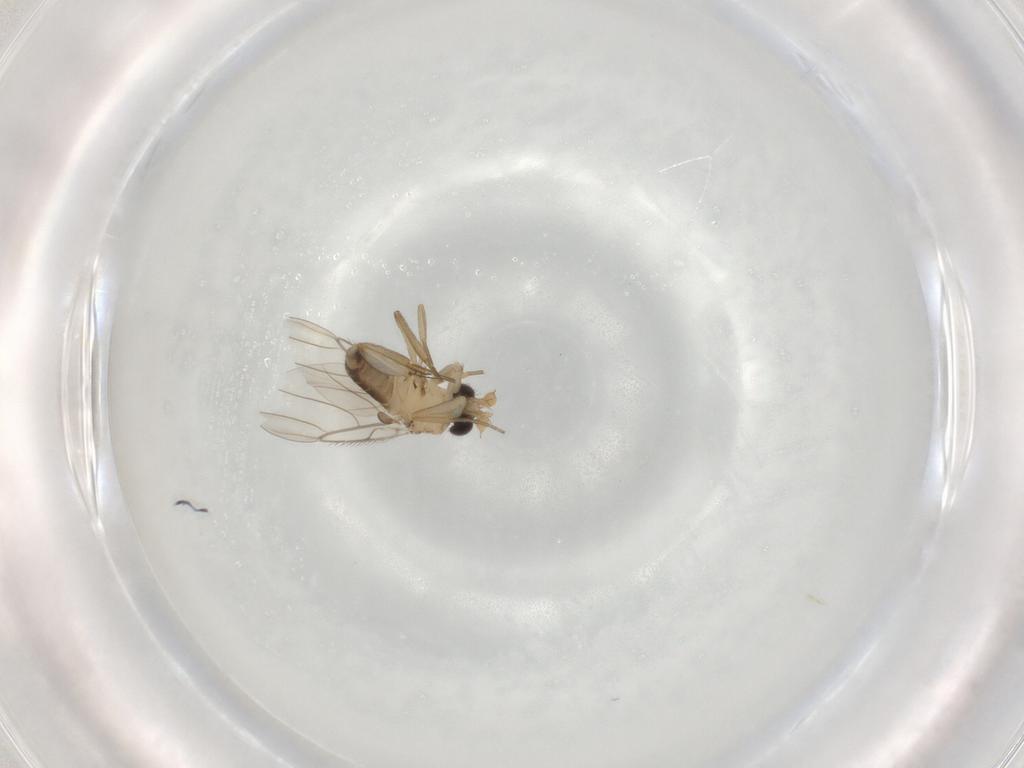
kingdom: Animalia
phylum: Arthropoda
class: Insecta
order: Diptera
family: Phoridae
